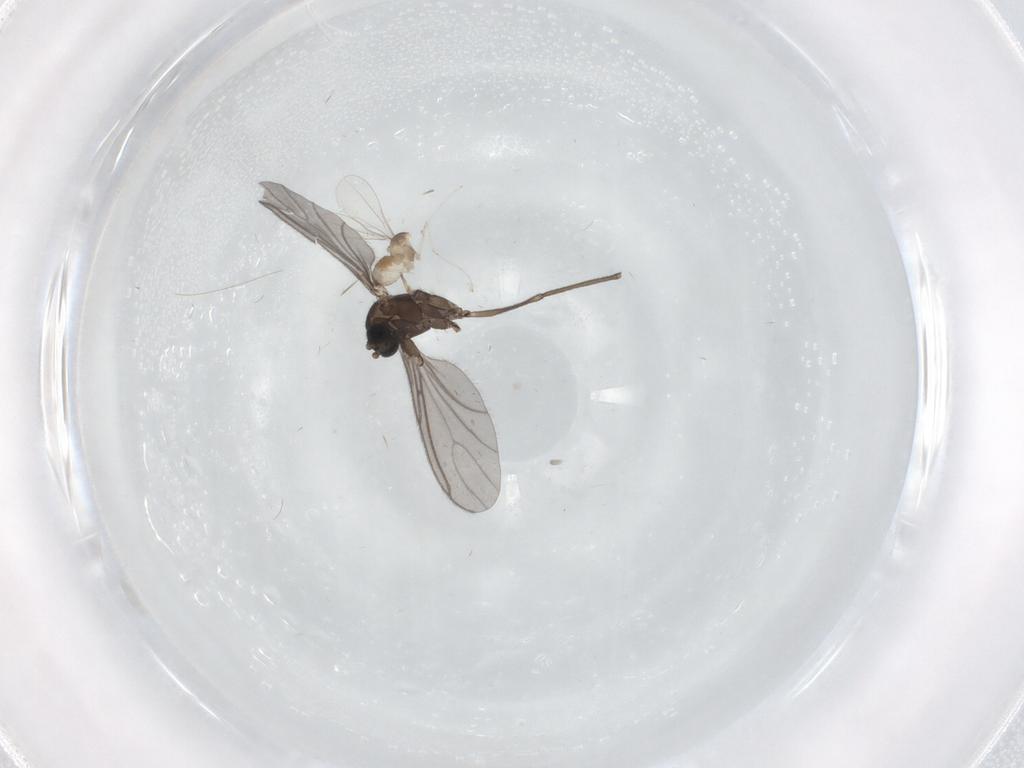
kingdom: Animalia
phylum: Arthropoda
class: Insecta
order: Diptera
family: Sciaridae
